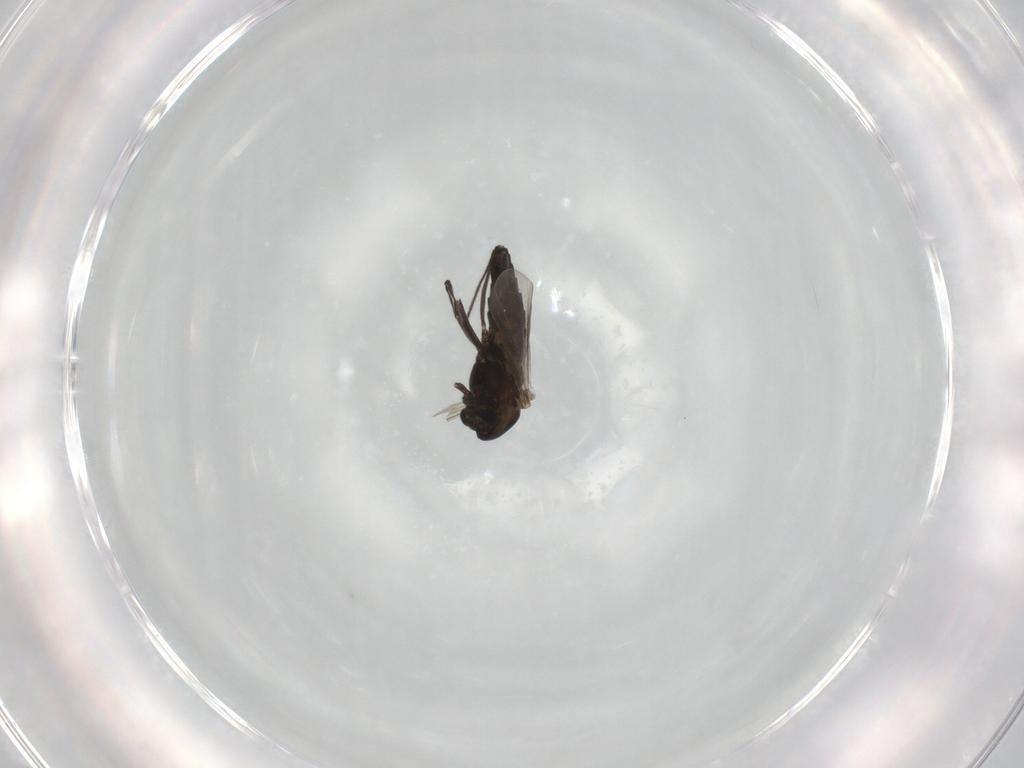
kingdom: Animalia
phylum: Arthropoda
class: Insecta
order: Diptera
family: Chironomidae
